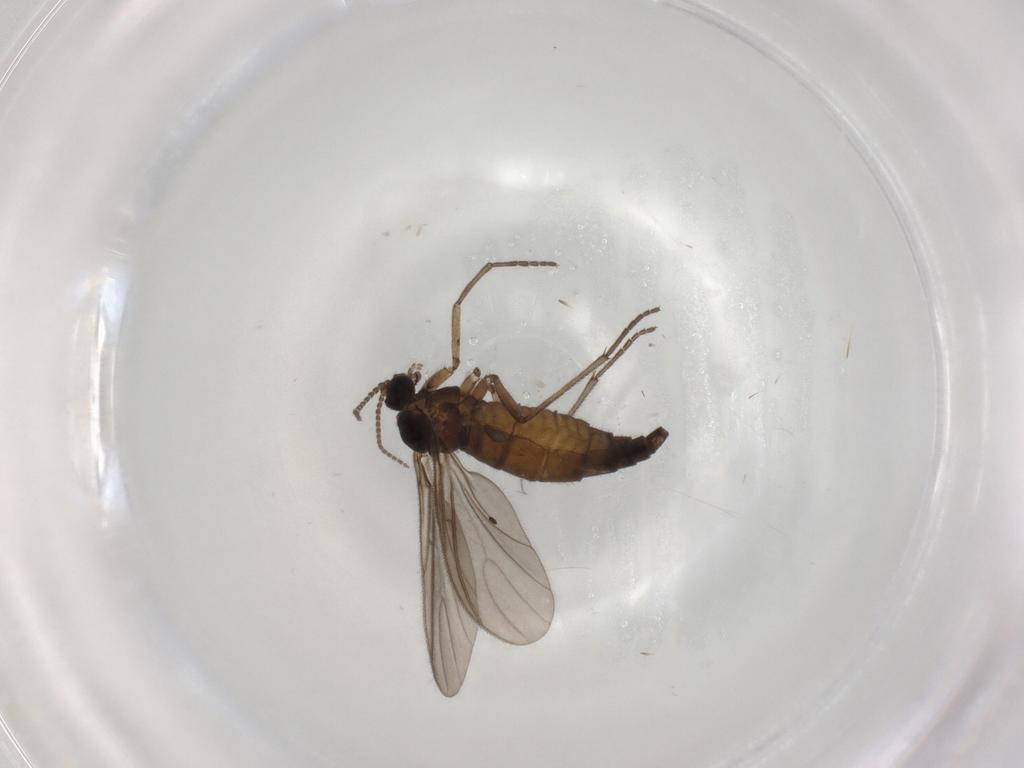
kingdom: Animalia
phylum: Arthropoda
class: Insecta
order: Diptera
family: Sciaridae
